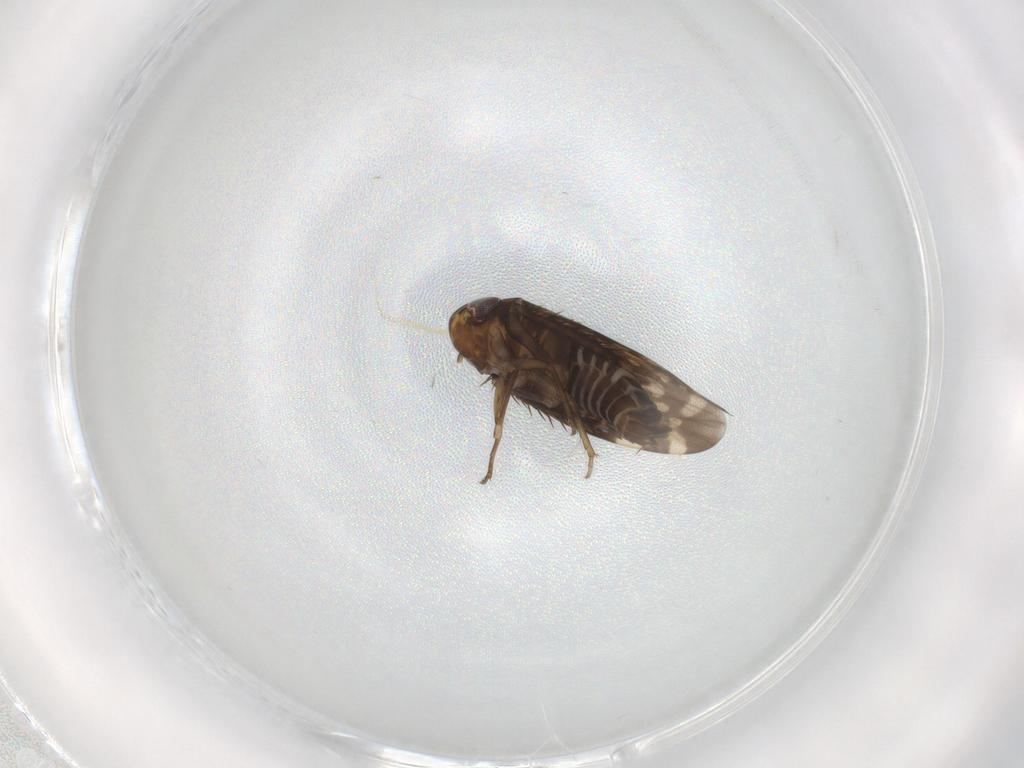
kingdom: Animalia
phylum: Arthropoda
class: Insecta
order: Hemiptera
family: Cicadellidae
